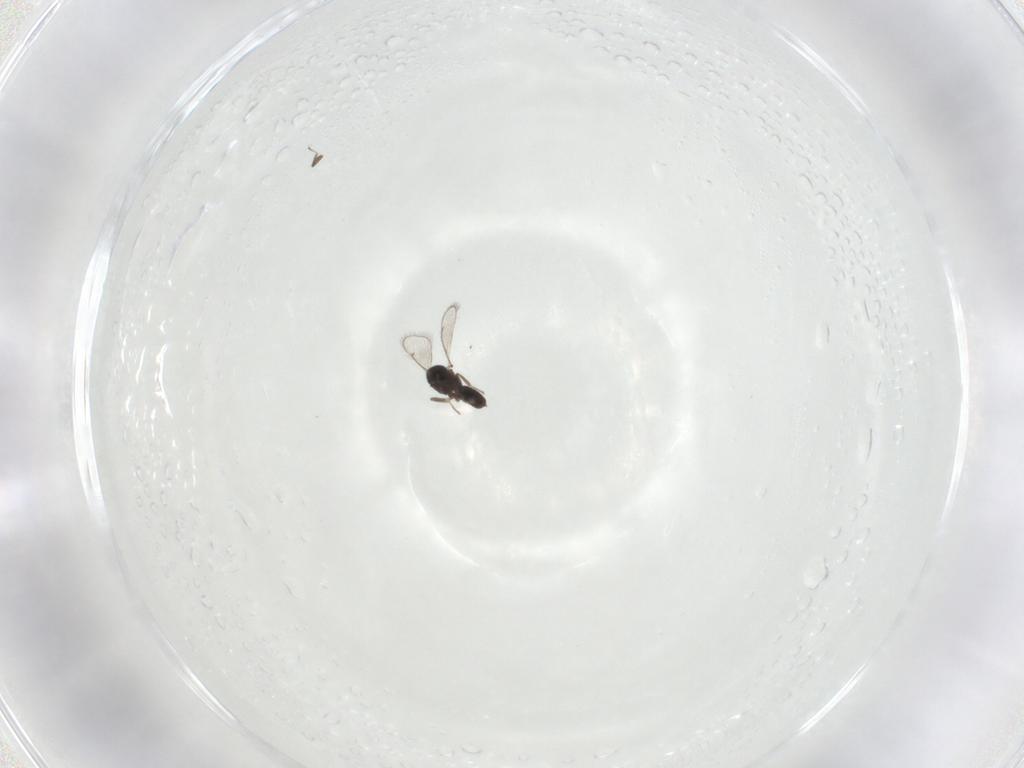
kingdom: Animalia
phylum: Arthropoda
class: Insecta
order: Hymenoptera
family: Eulophidae
